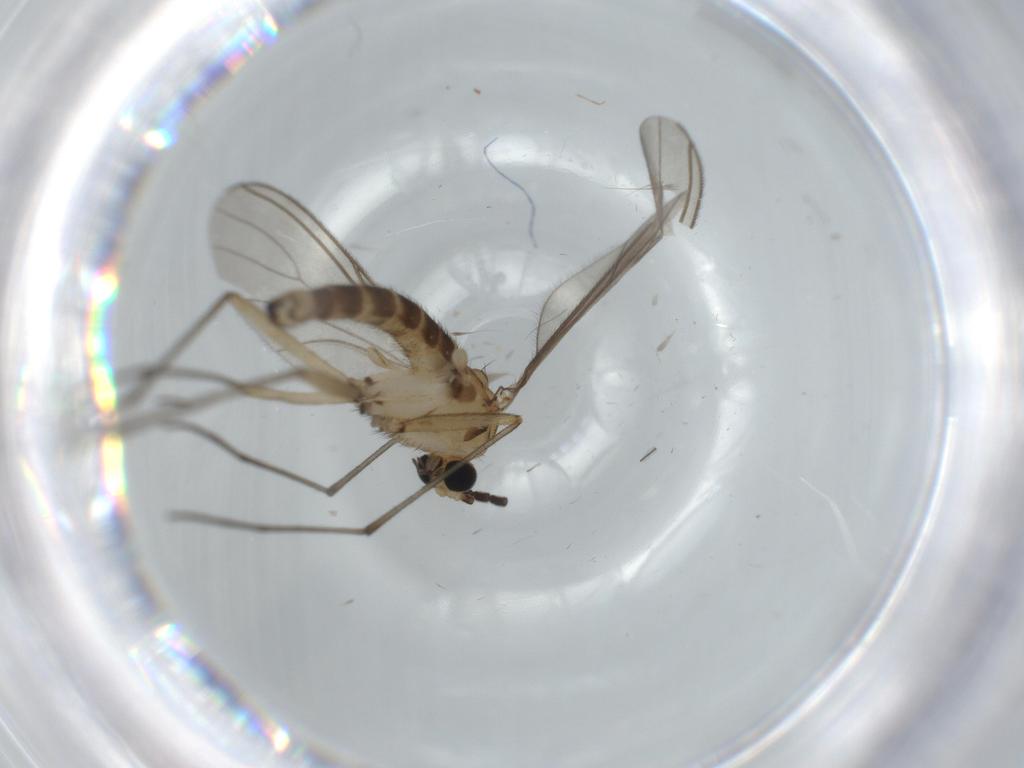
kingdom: Animalia
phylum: Arthropoda
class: Insecta
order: Diptera
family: Sciaridae
